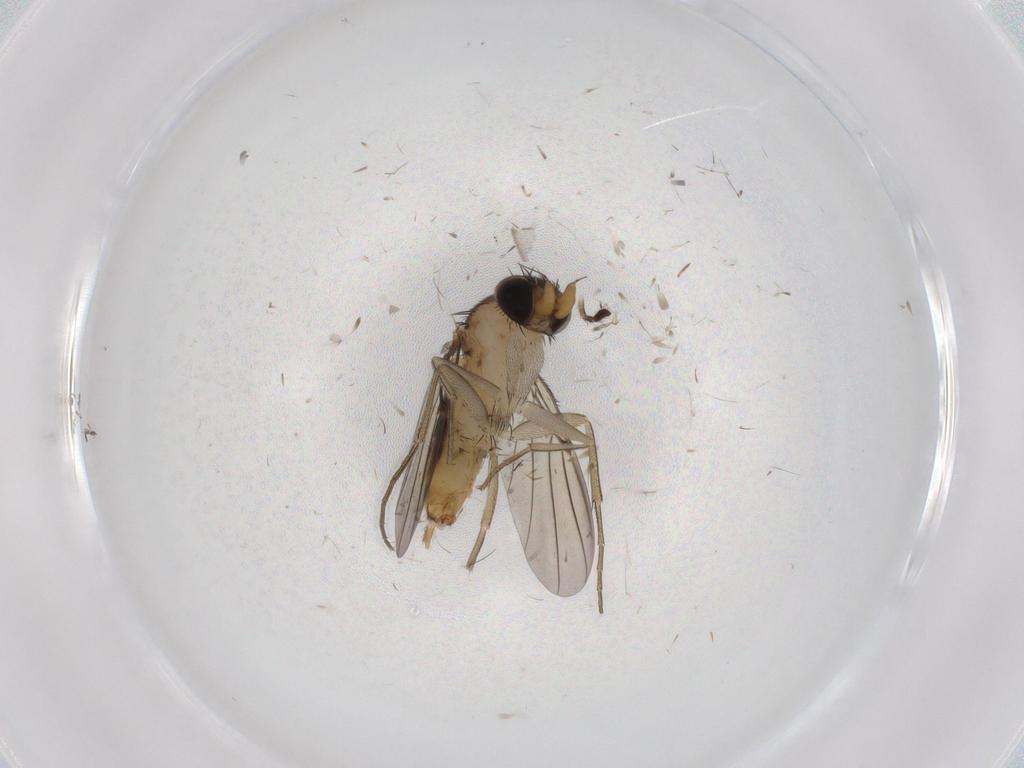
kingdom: Animalia
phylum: Arthropoda
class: Insecta
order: Diptera
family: Phoridae
